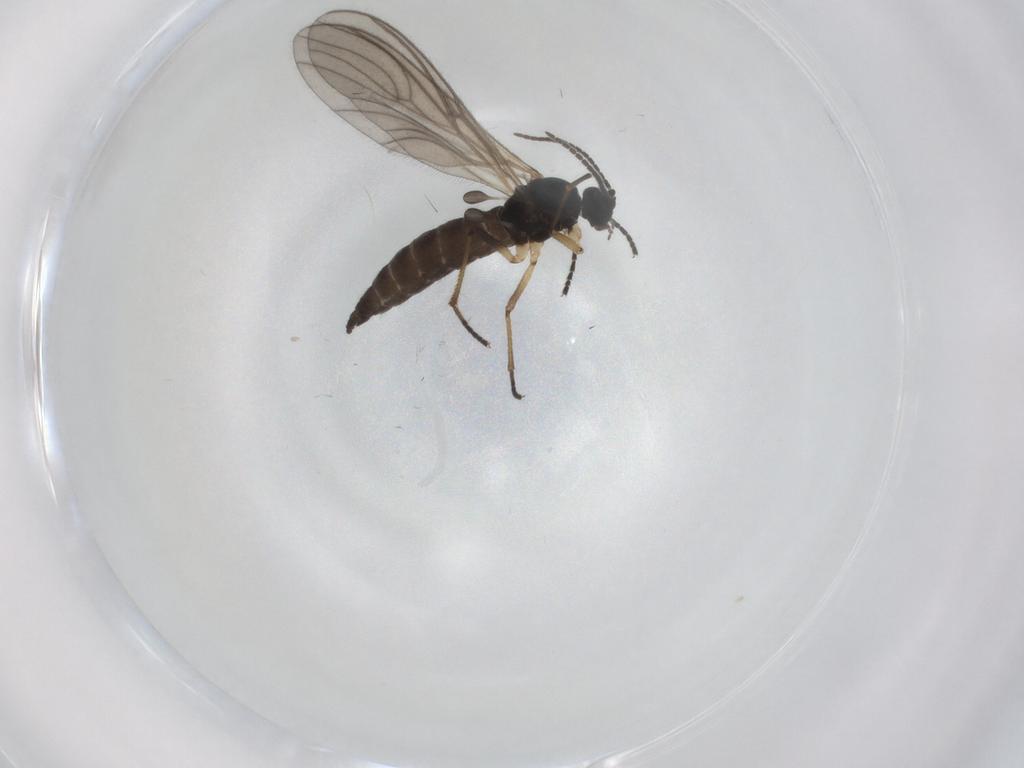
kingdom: Animalia
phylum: Arthropoda
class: Insecta
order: Diptera
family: Sciaridae
